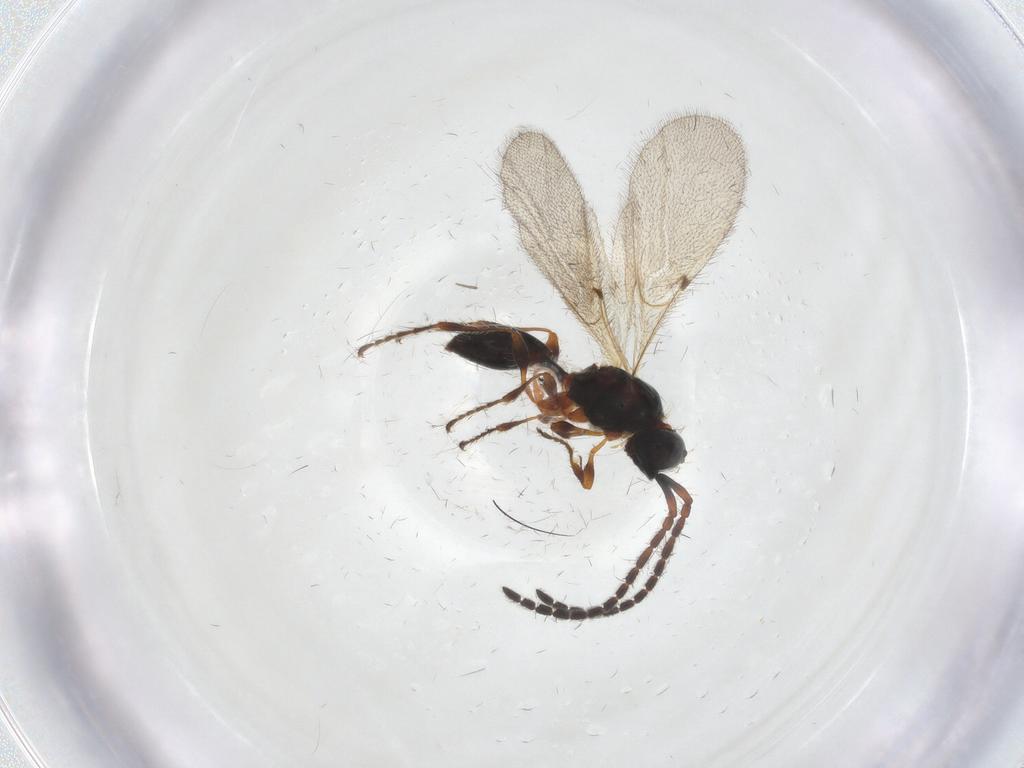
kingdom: Animalia
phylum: Arthropoda
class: Insecta
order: Hymenoptera
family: Diapriidae
